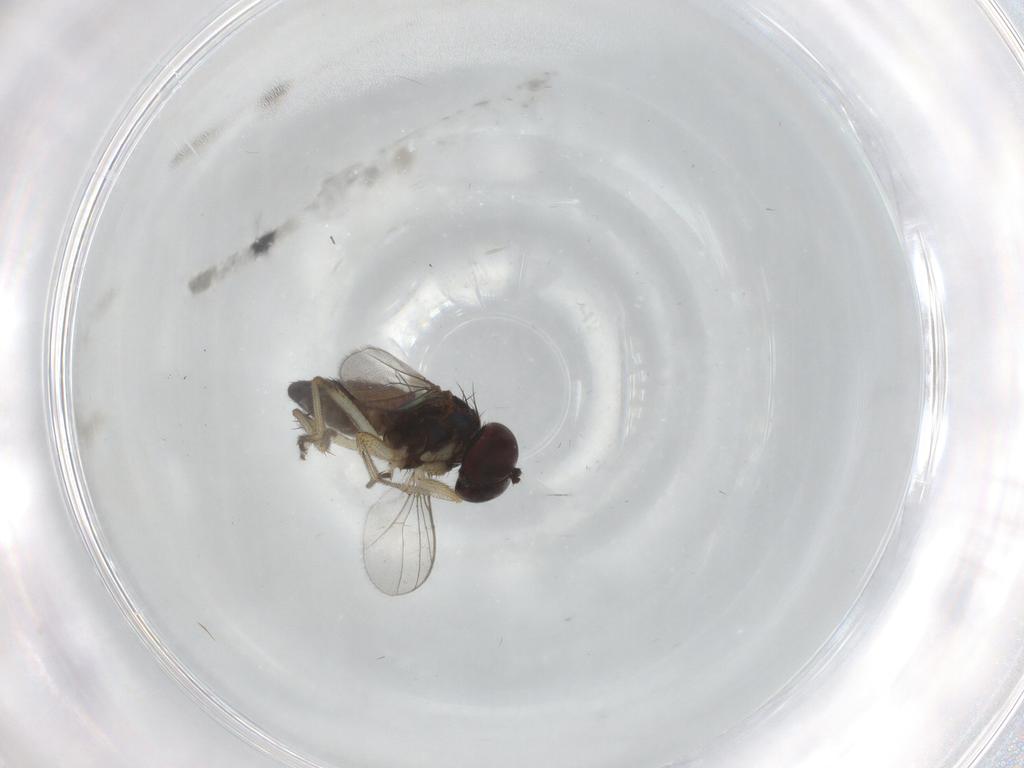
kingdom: Animalia
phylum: Arthropoda
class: Insecta
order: Diptera
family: Dolichopodidae
